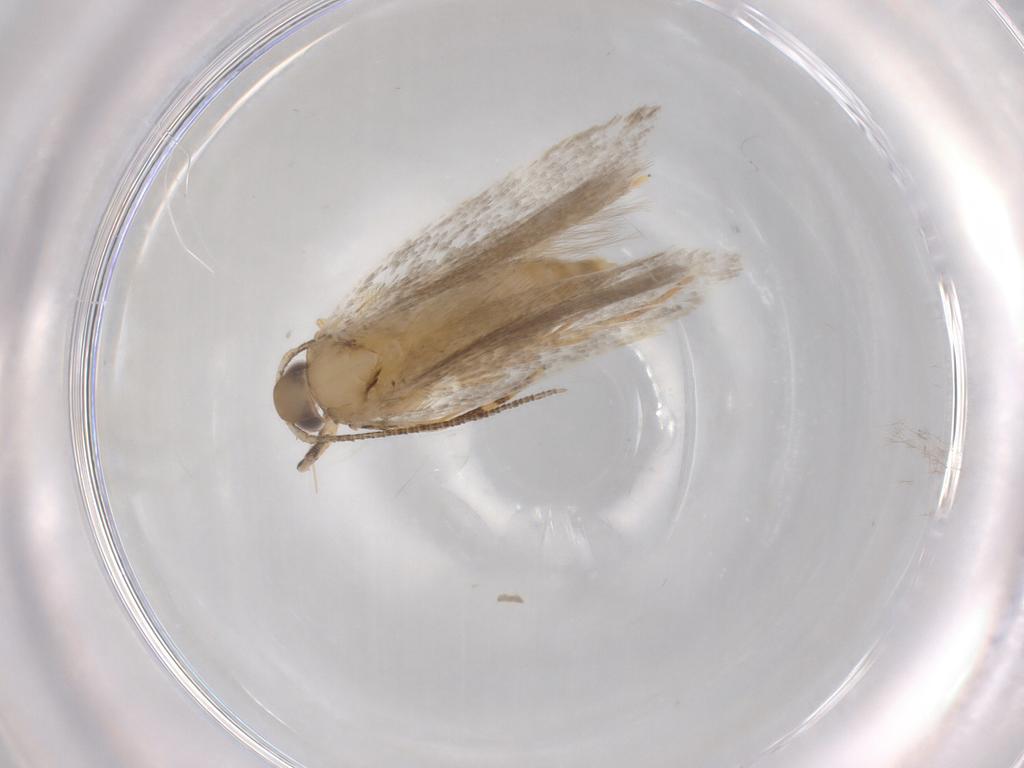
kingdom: Animalia
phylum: Arthropoda
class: Insecta
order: Lepidoptera
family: Autostichidae
